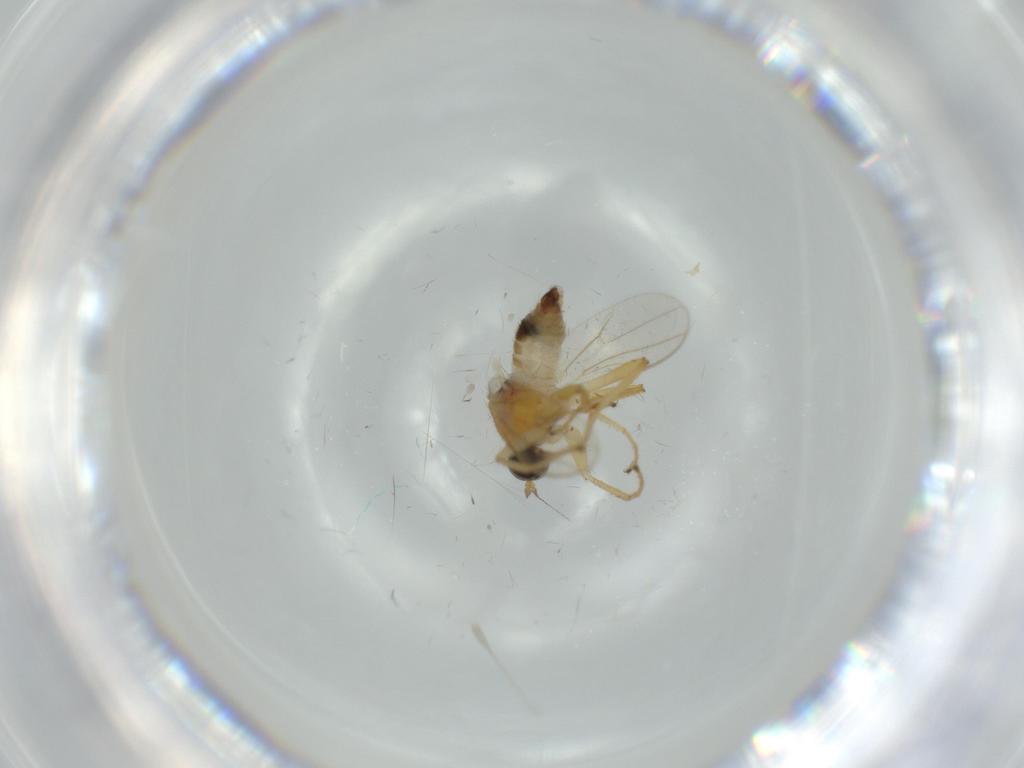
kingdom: Animalia
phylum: Arthropoda
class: Insecta
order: Diptera
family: Hybotidae
